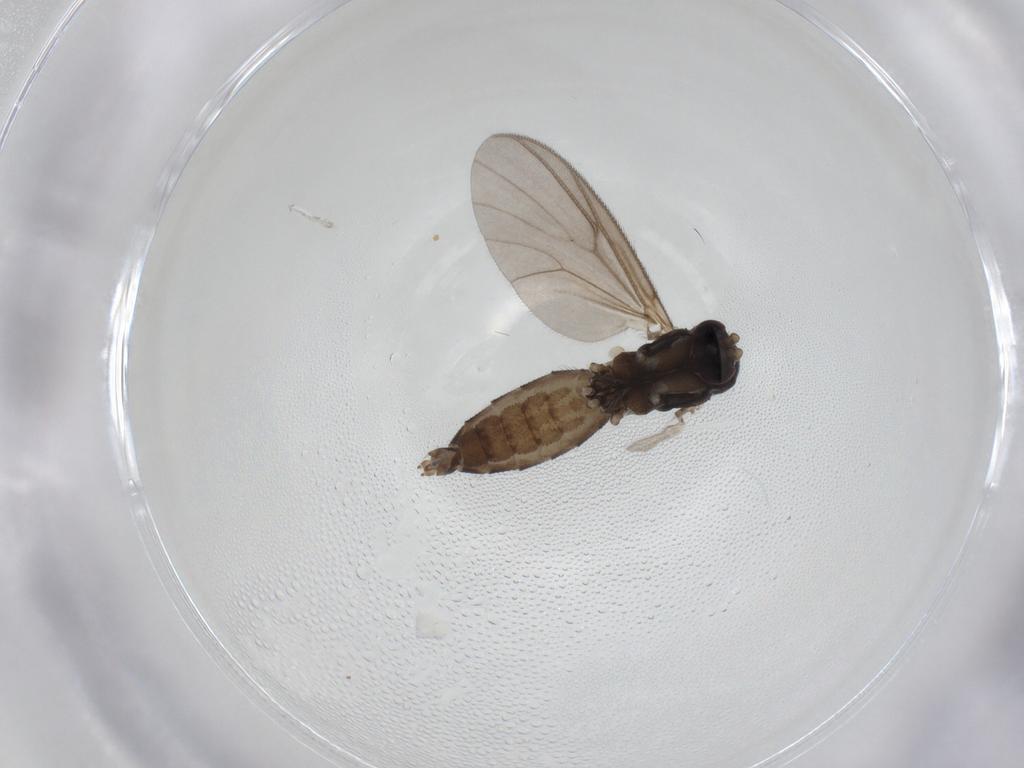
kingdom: Animalia
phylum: Arthropoda
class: Insecta
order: Diptera
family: Mycetophilidae
